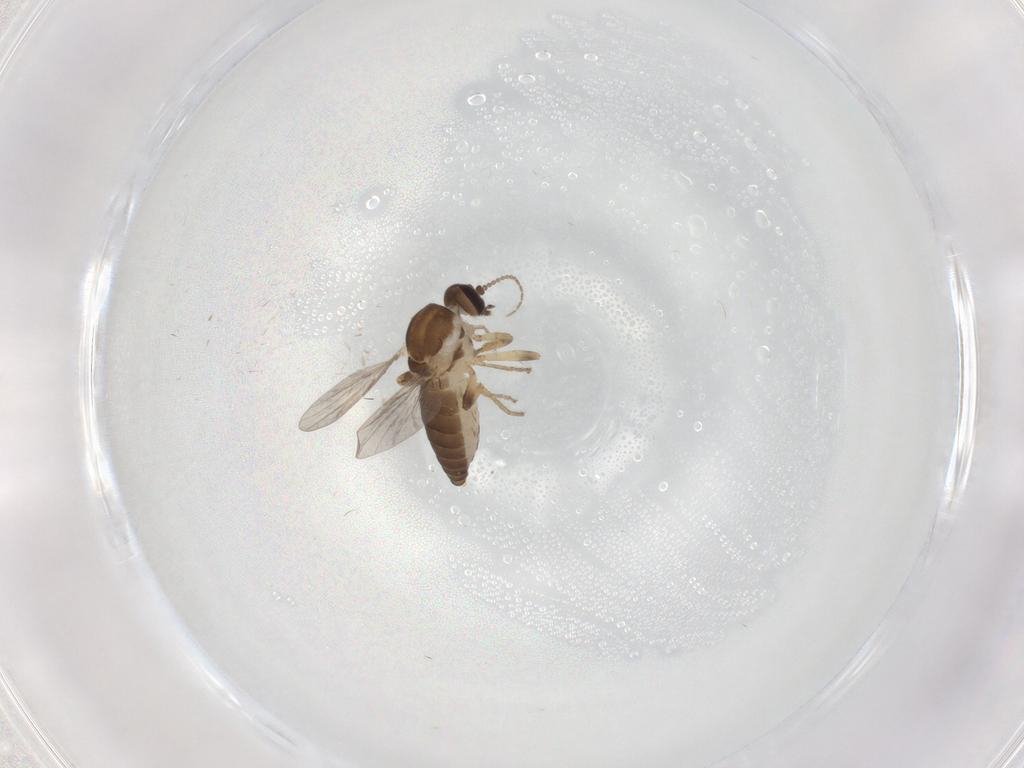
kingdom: Animalia
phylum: Arthropoda
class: Insecta
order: Diptera
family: Ceratopogonidae
